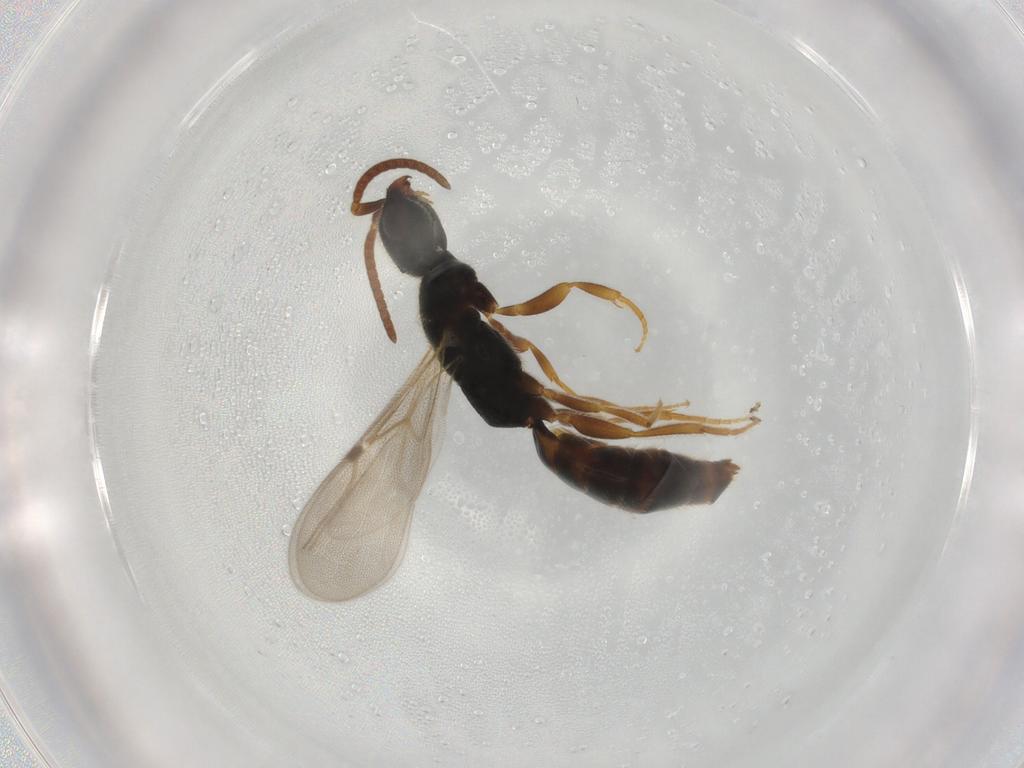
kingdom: Animalia
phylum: Arthropoda
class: Insecta
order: Hymenoptera
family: Bethylidae
